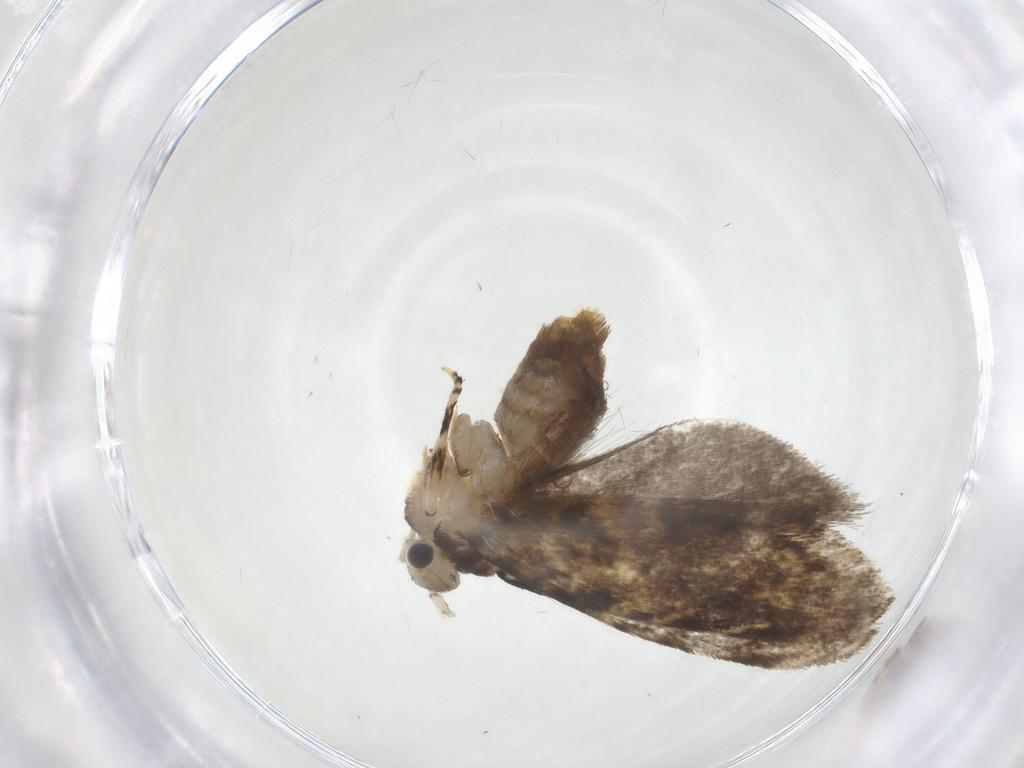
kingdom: Animalia
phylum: Arthropoda
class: Insecta
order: Lepidoptera
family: Tineidae
